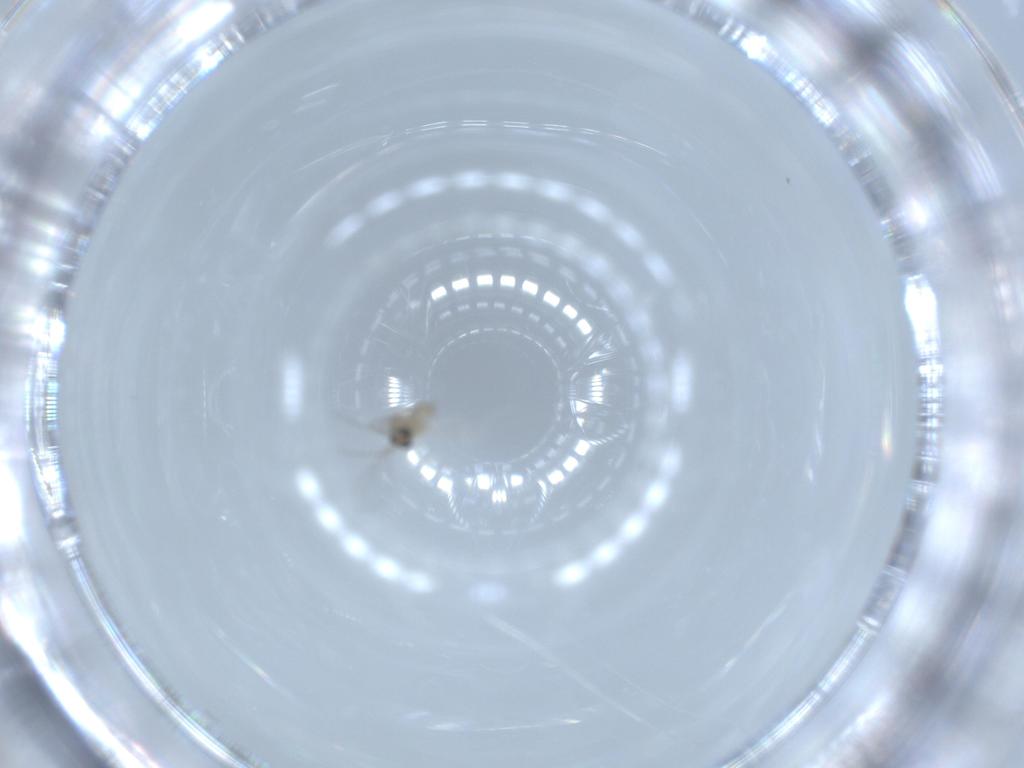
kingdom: Animalia
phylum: Arthropoda
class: Insecta
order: Diptera
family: Cecidomyiidae
